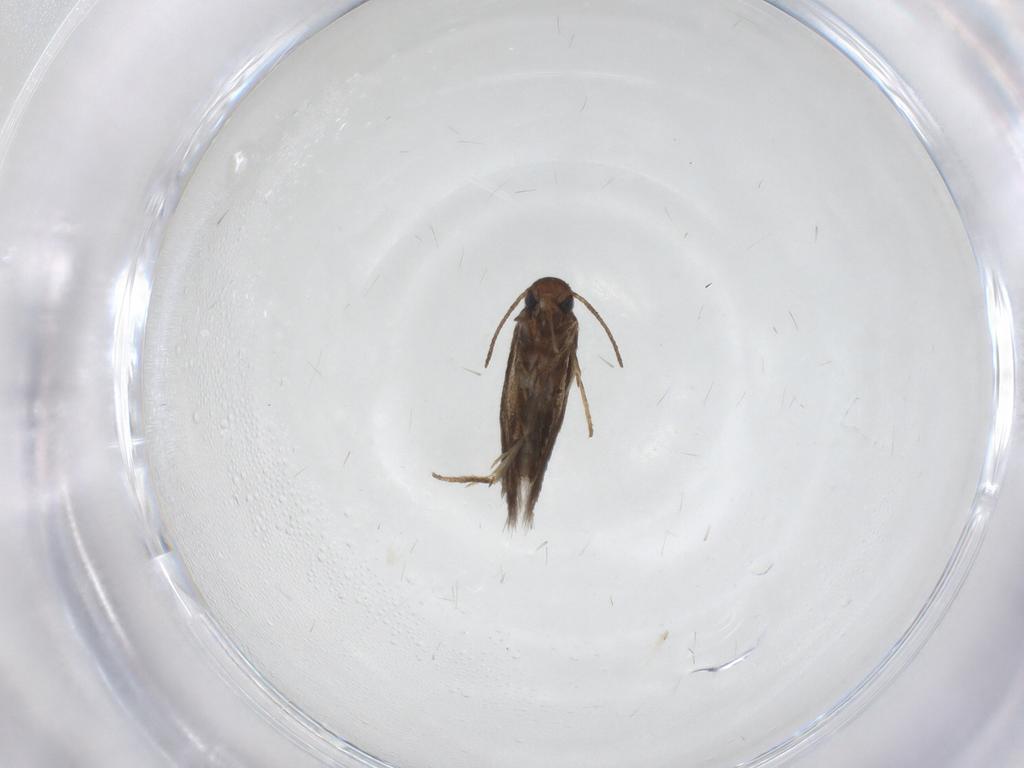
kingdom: Animalia
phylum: Arthropoda
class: Insecta
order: Lepidoptera
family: Heliozelidae
